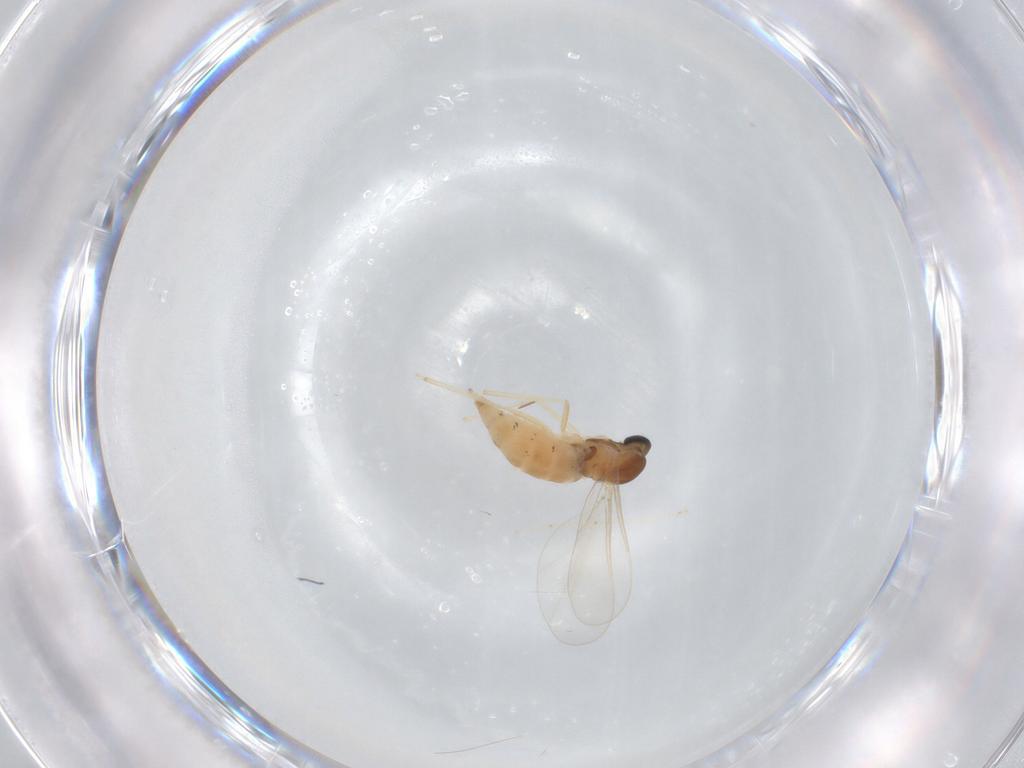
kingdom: Animalia
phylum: Arthropoda
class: Insecta
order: Diptera
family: Cecidomyiidae
